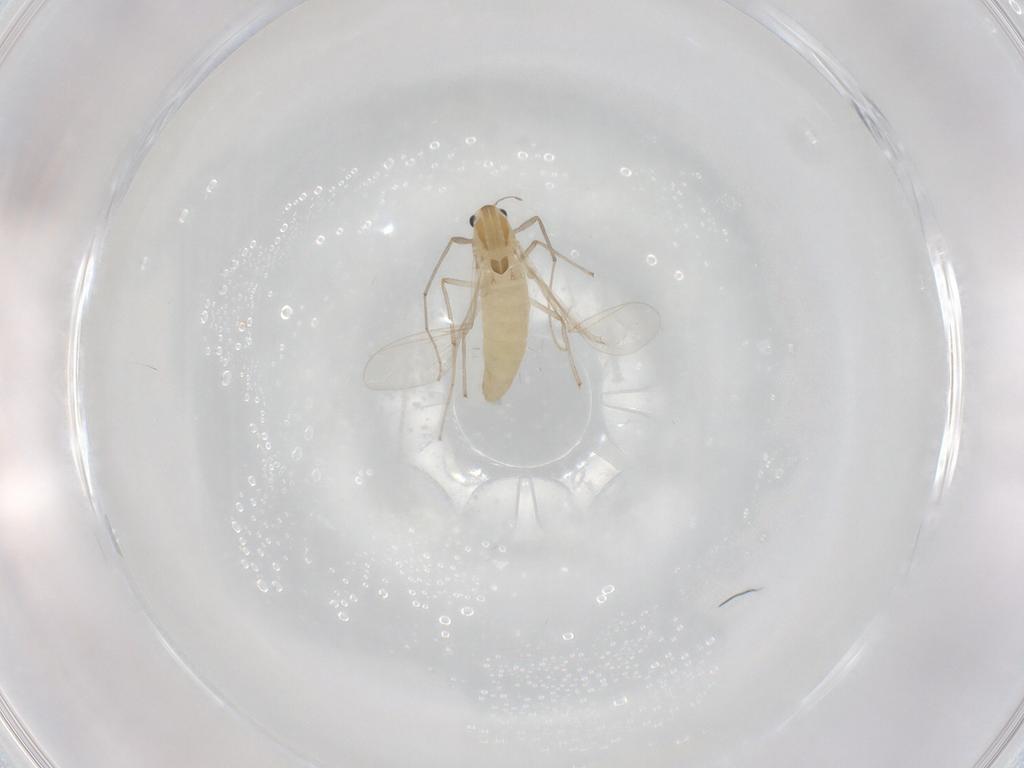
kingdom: Animalia
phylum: Arthropoda
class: Insecta
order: Diptera
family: Chironomidae
